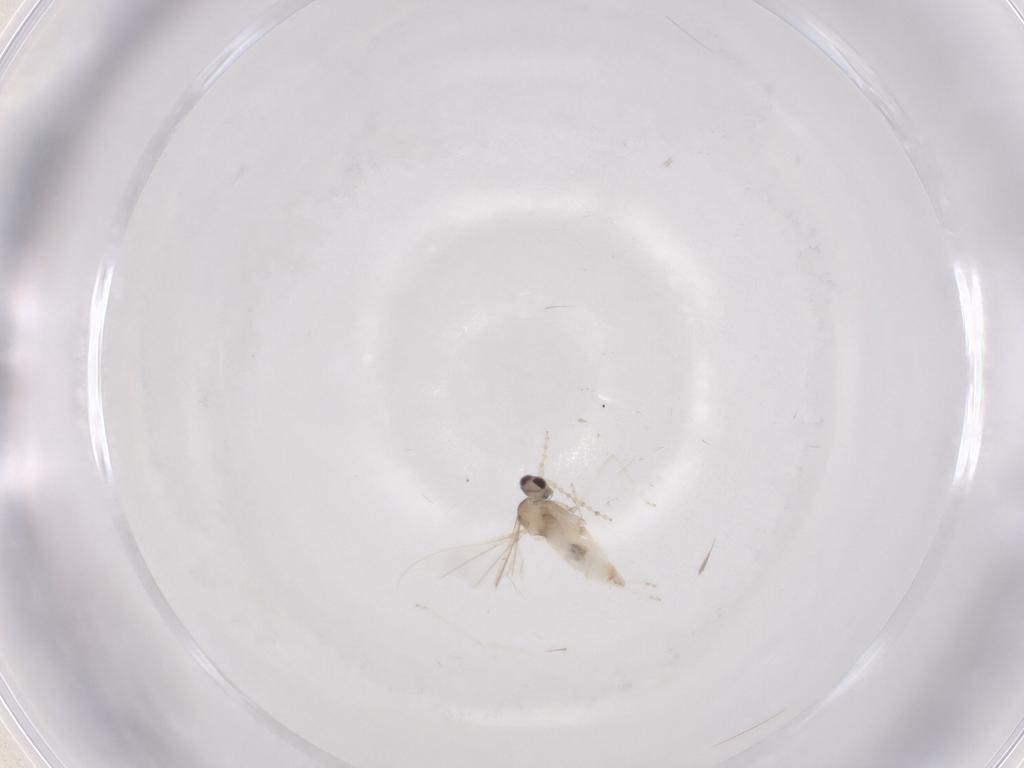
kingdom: Animalia
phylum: Arthropoda
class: Insecta
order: Diptera
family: Cecidomyiidae
